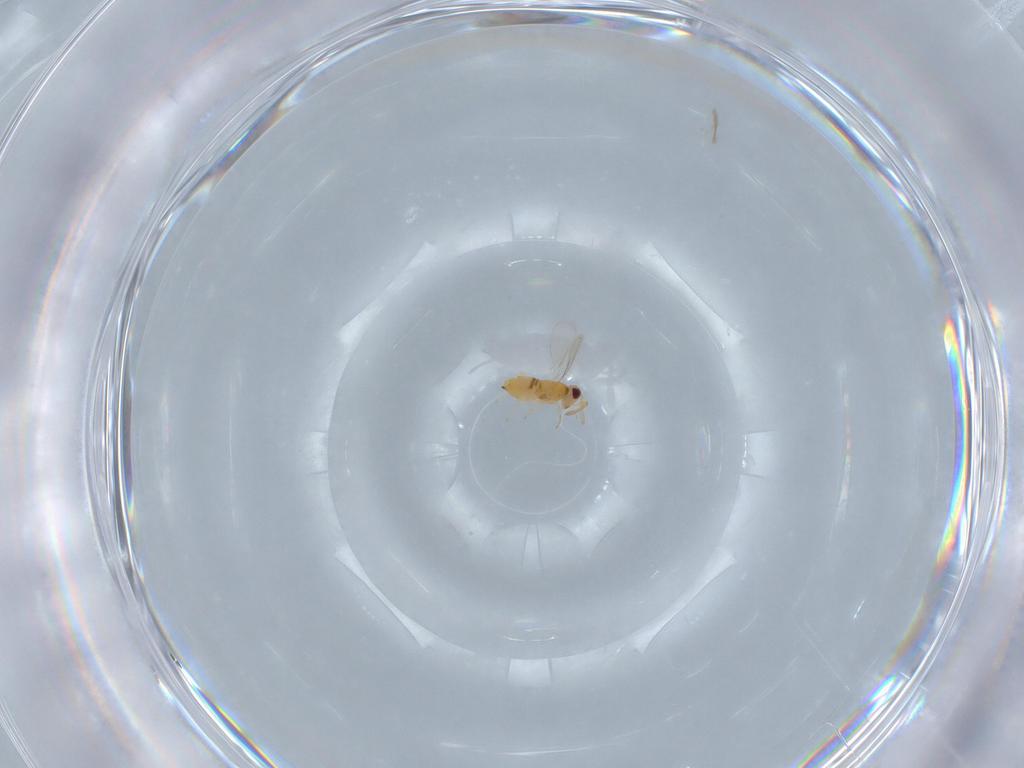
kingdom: Animalia
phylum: Arthropoda
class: Insecta
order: Hymenoptera
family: Aphelinidae
